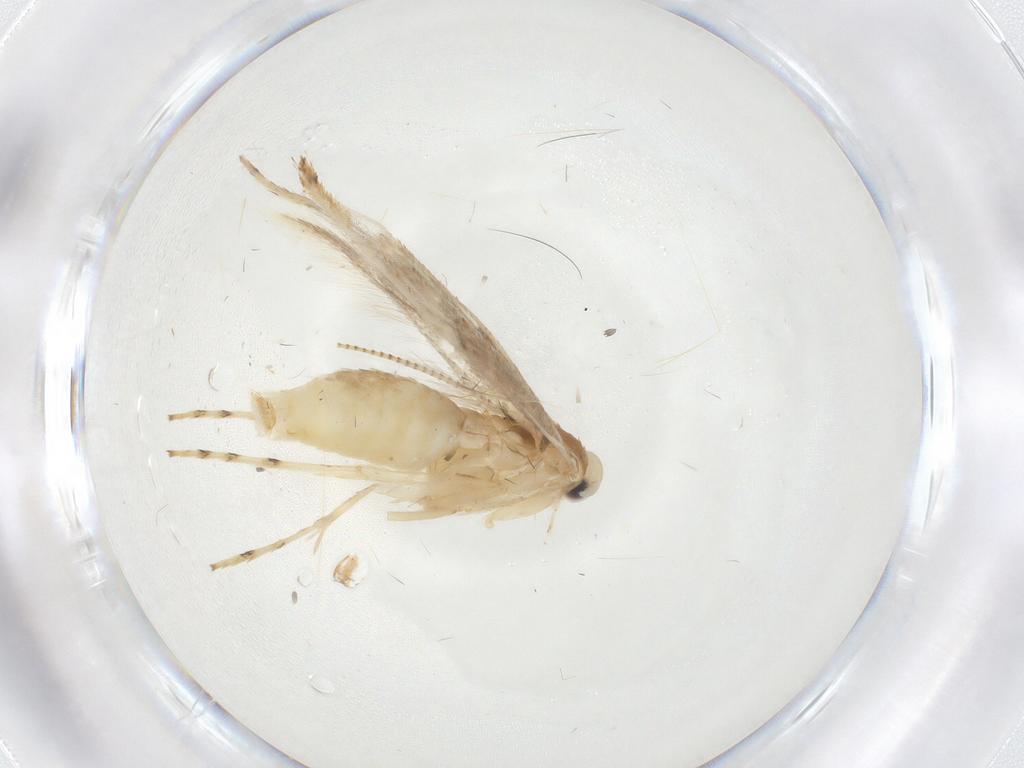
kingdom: Animalia
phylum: Arthropoda
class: Insecta
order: Lepidoptera
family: Gracillariidae
